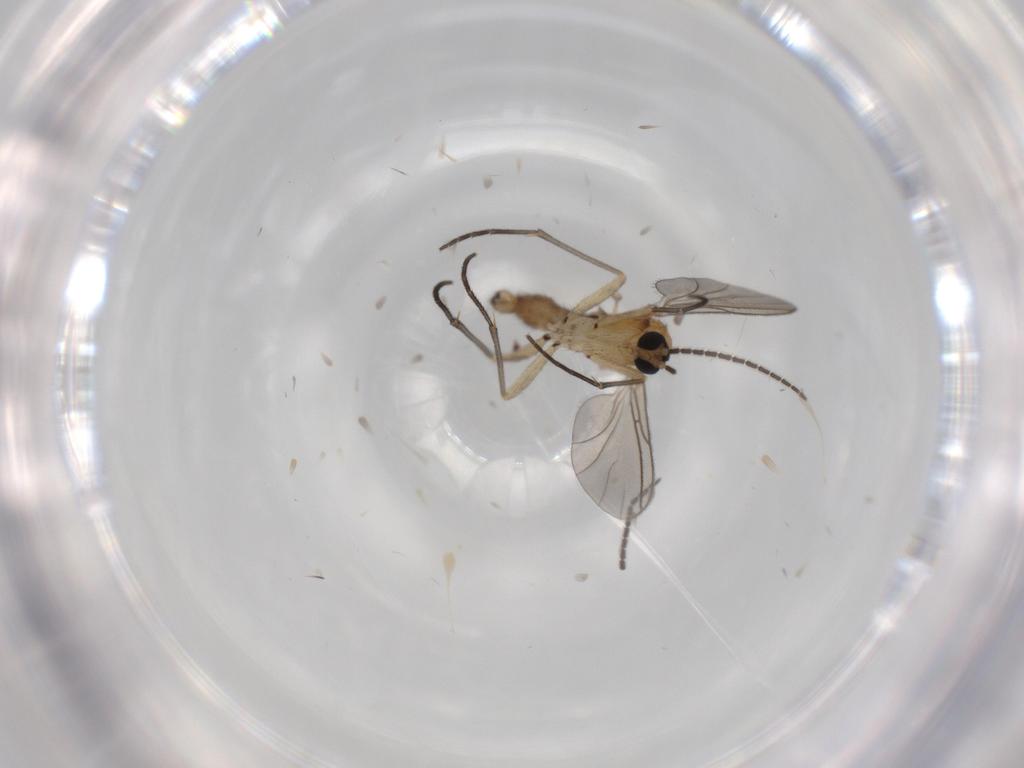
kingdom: Animalia
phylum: Arthropoda
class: Insecta
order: Diptera
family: Sciaridae
